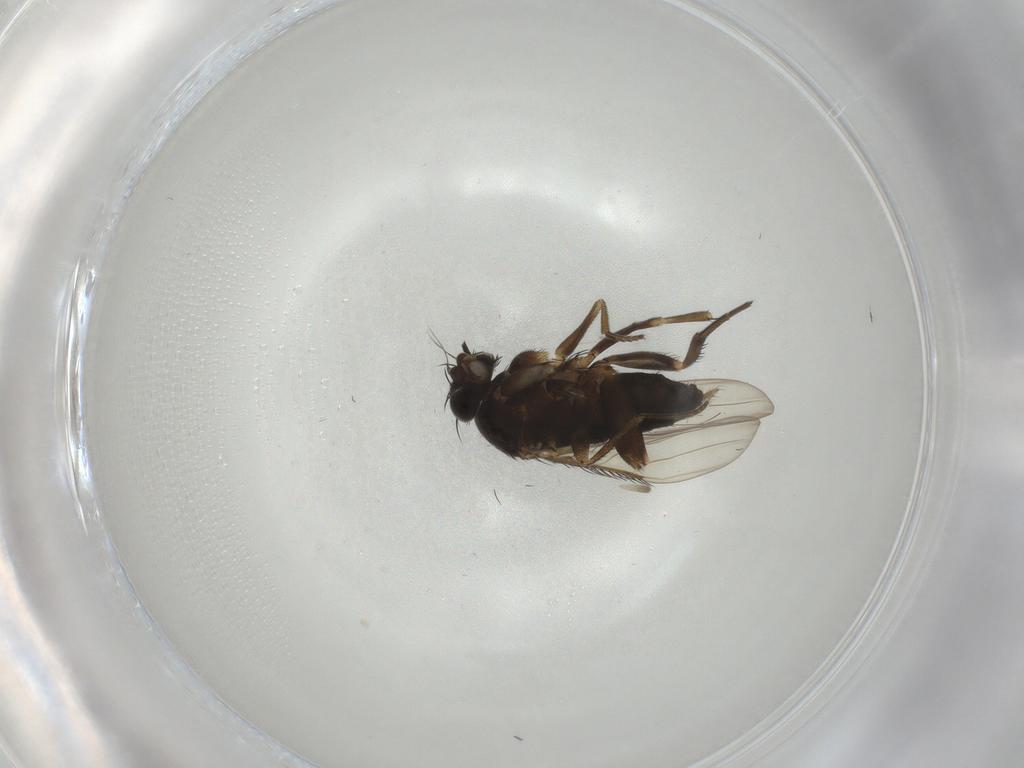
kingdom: Animalia
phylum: Arthropoda
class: Insecta
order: Diptera
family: Phoridae
